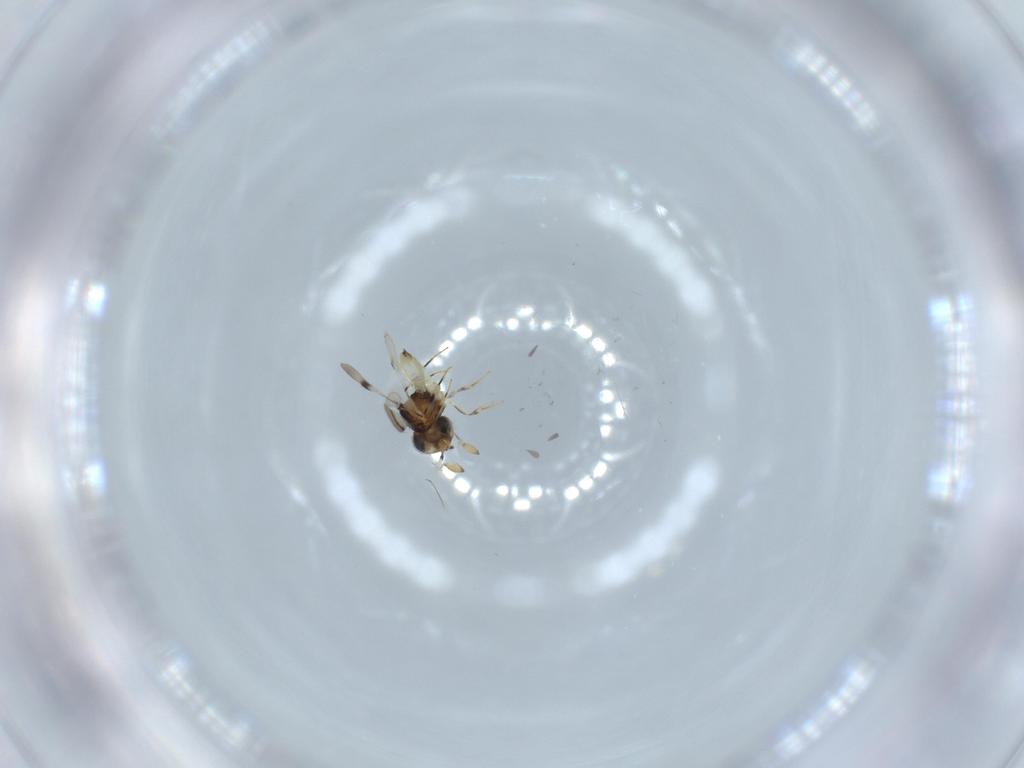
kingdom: Animalia
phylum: Arthropoda
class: Insecta
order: Hymenoptera
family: Scelionidae
